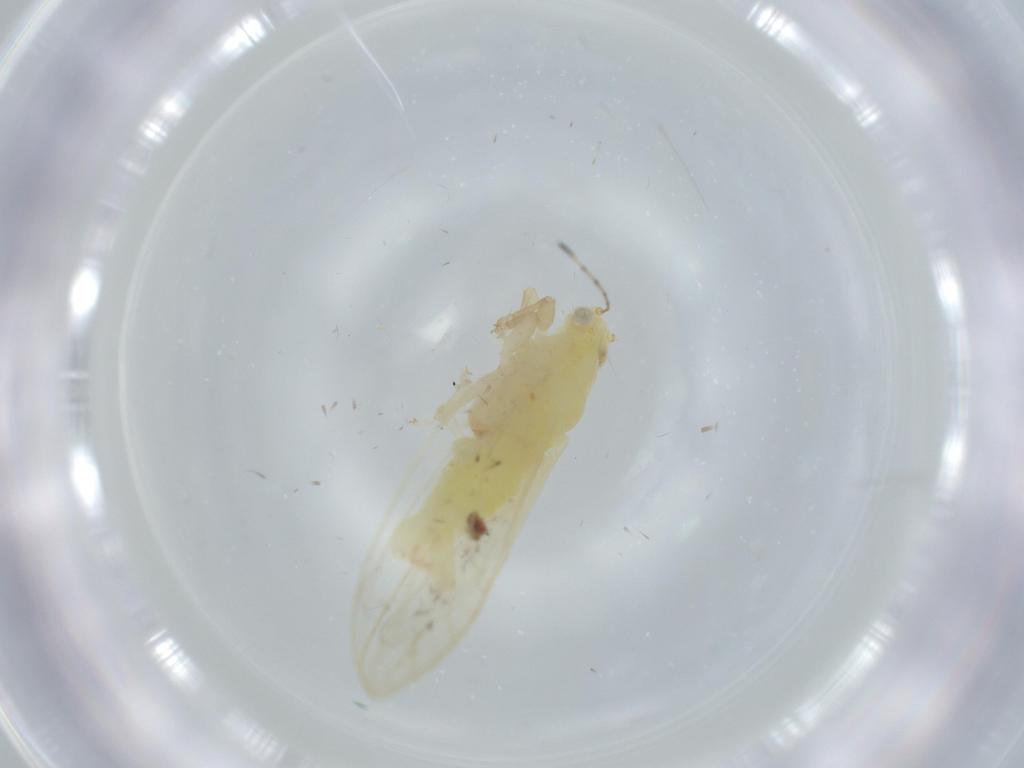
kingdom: Animalia
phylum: Arthropoda
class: Insecta
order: Hemiptera
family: Triozidae
